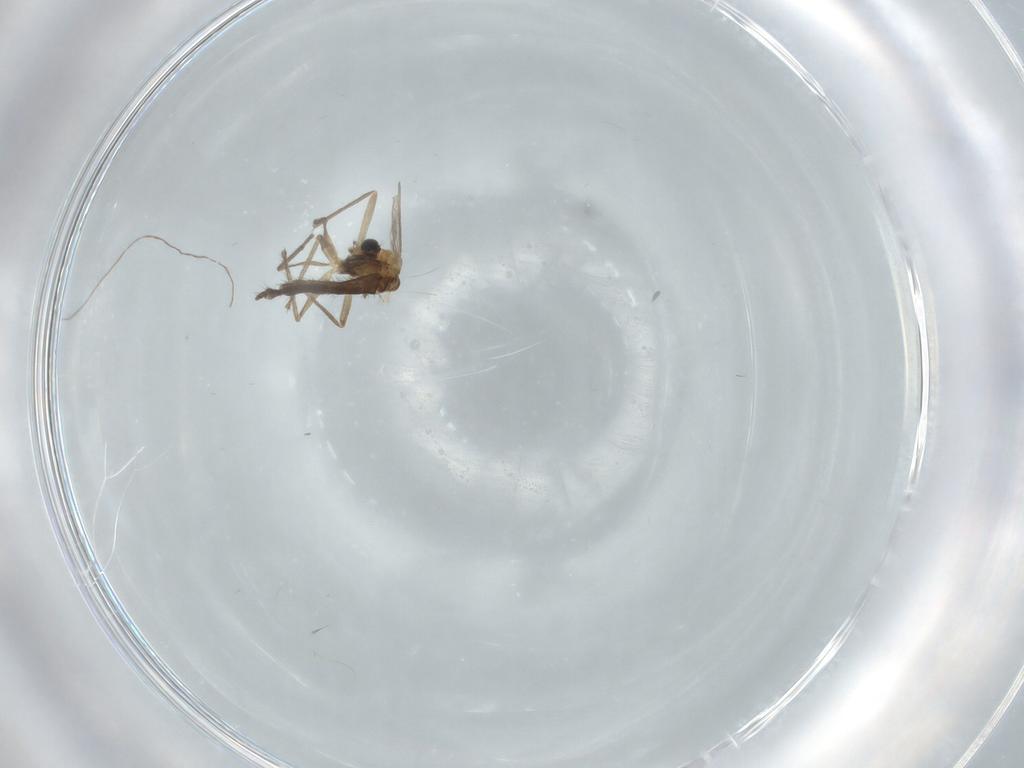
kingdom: Animalia
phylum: Arthropoda
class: Insecta
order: Diptera
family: Chironomidae
